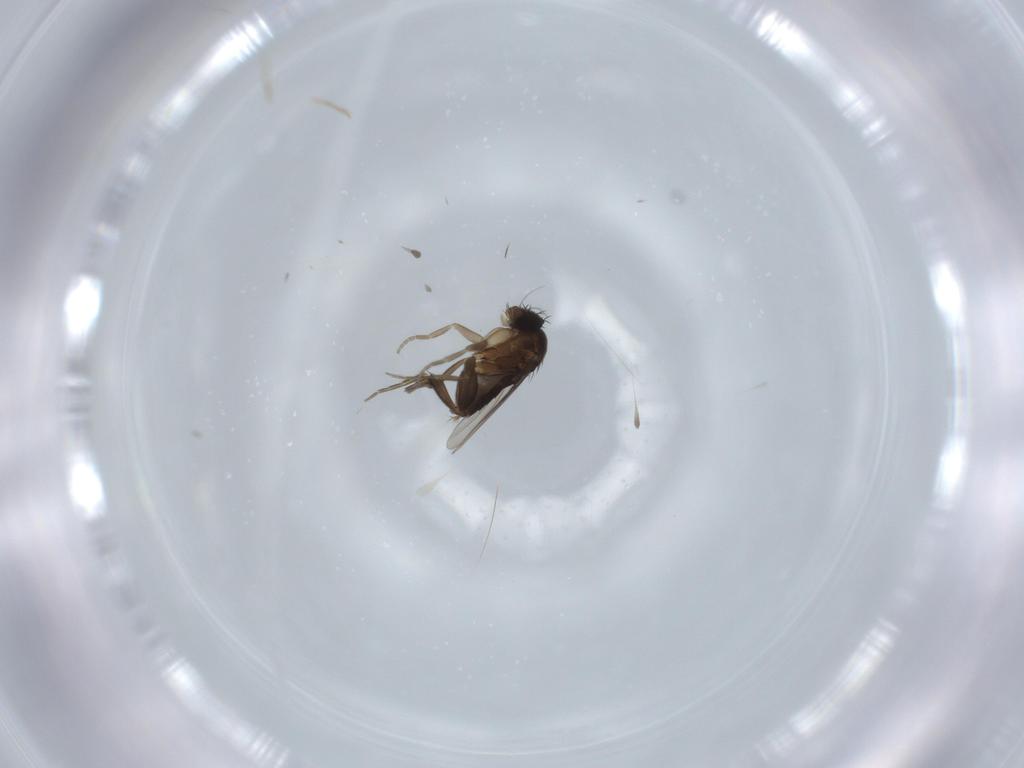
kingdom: Animalia
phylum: Arthropoda
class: Insecta
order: Diptera
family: Phoridae
